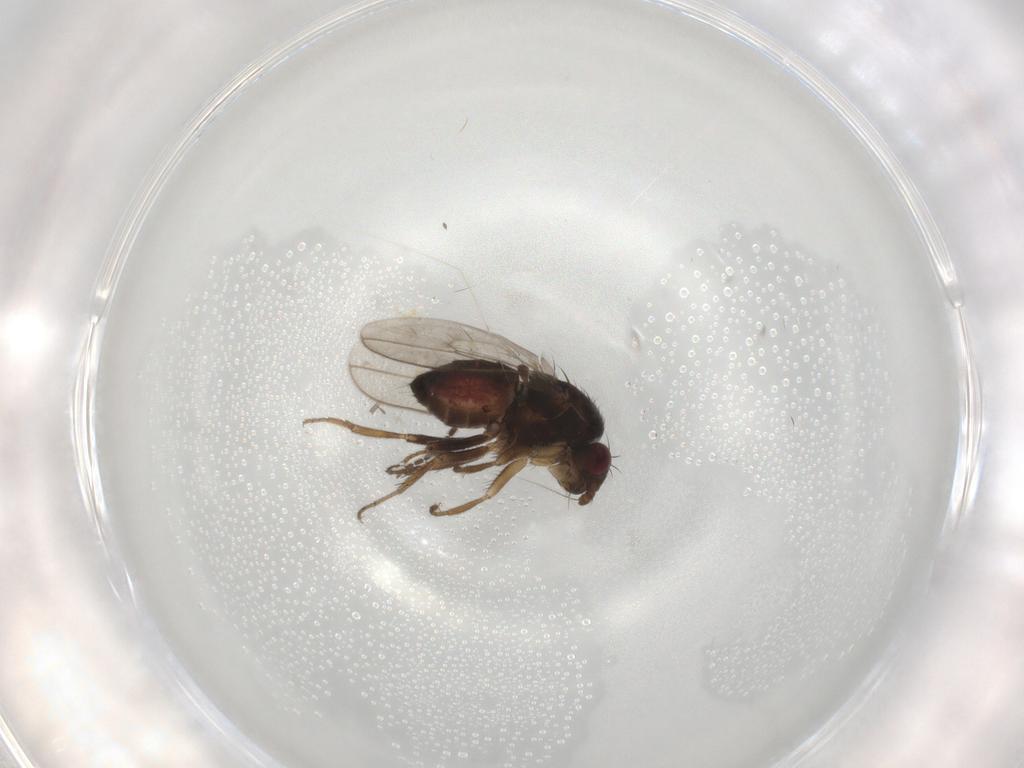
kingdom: Animalia
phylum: Arthropoda
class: Insecta
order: Diptera
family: Sphaeroceridae
